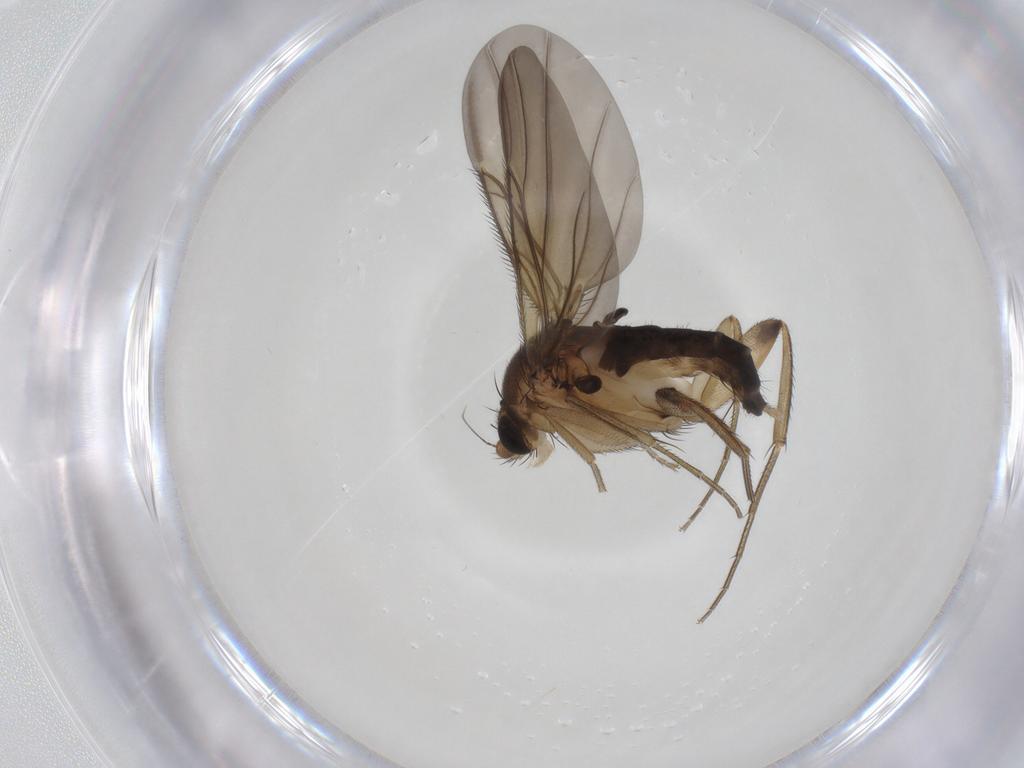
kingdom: Animalia
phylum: Arthropoda
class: Insecta
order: Diptera
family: Phoridae
